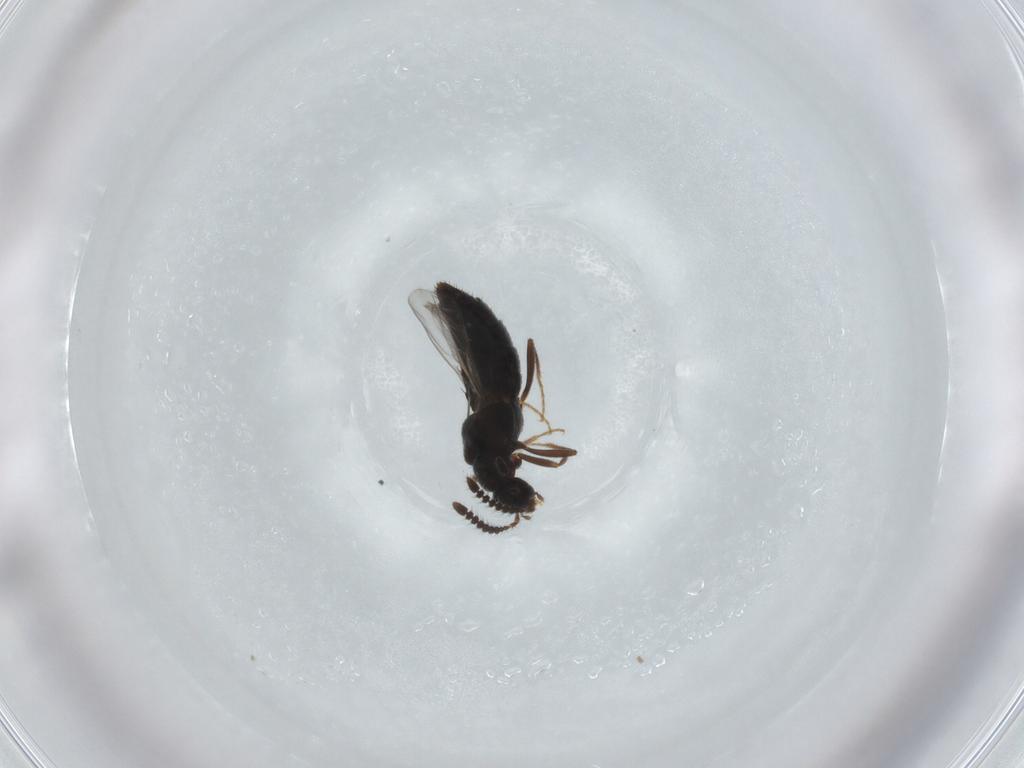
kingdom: Animalia
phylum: Arthropoda
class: Insecta
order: Coleoptera
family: Staphylinidae
